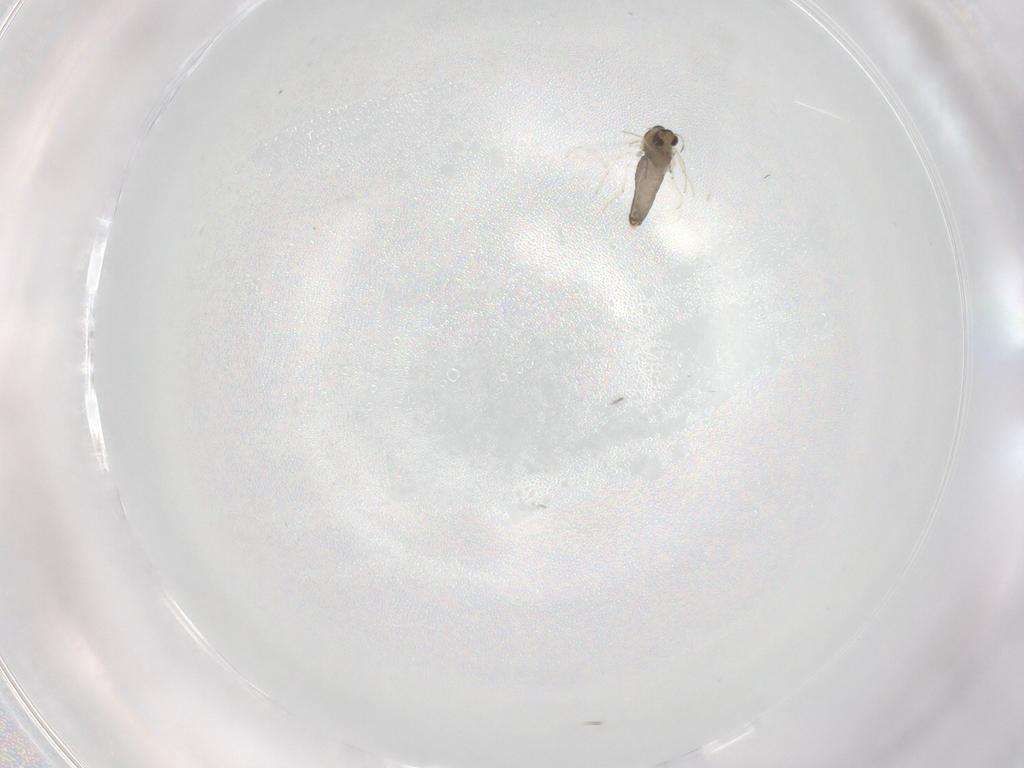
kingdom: Animalia
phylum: Arthropoda
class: Insecta
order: Diptera
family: Chironomidae
